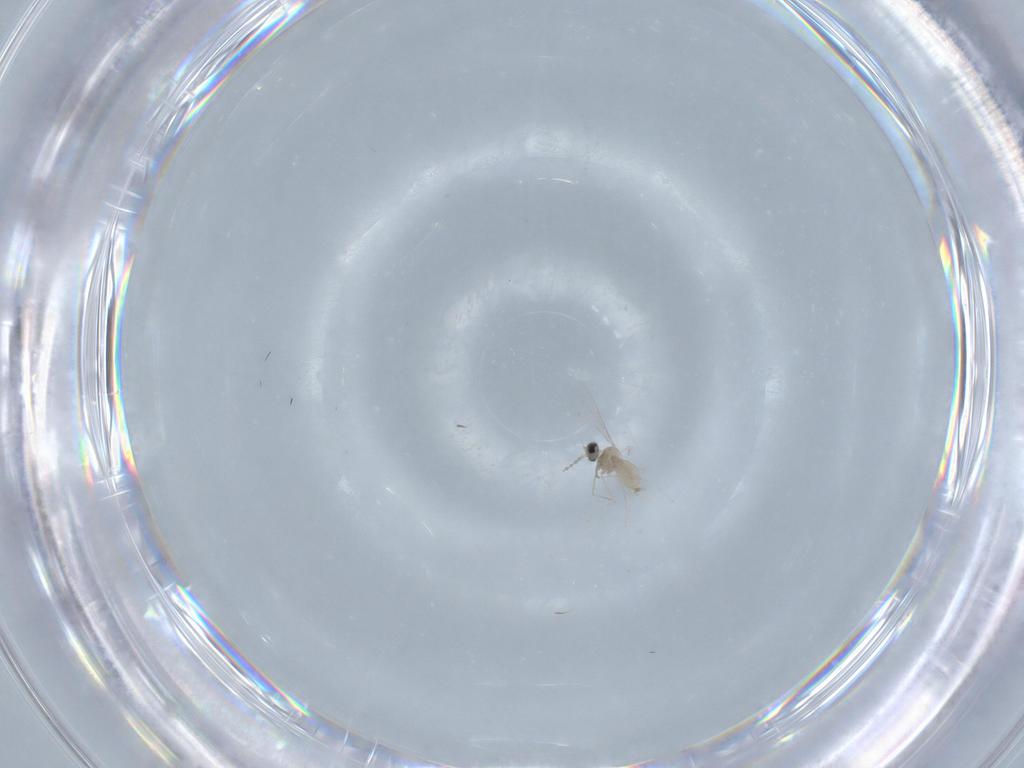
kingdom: Animalia
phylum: Arthropoda
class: Insecta
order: Diptera
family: Cecidomyiidae
